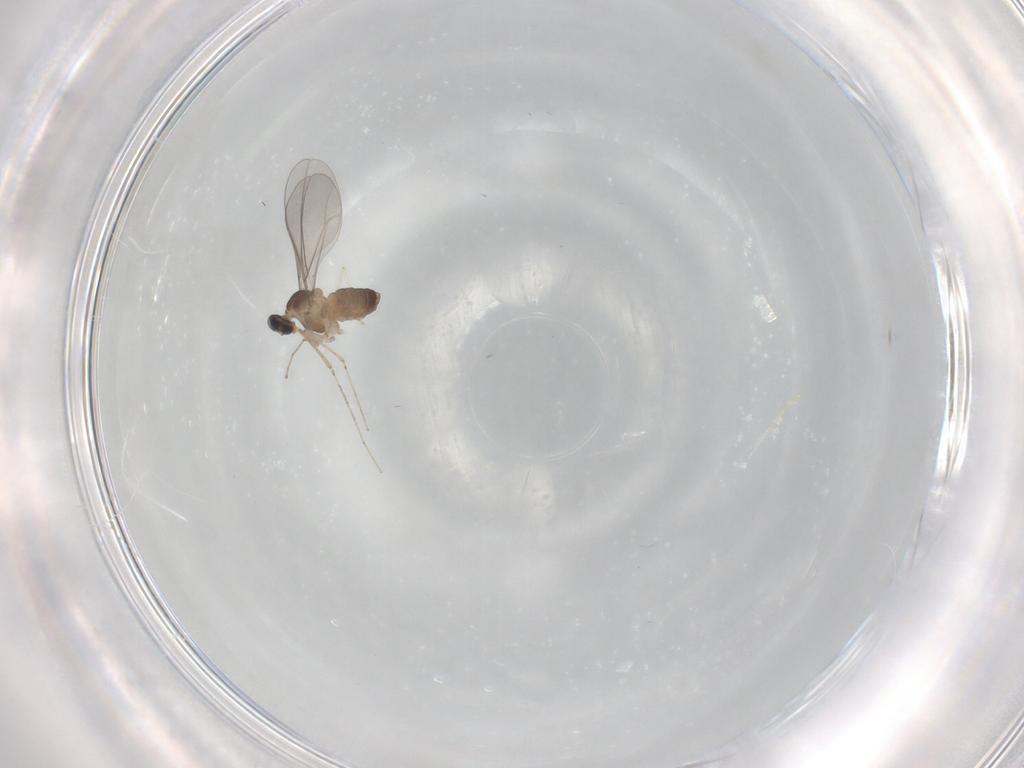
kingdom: Animalia
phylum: Arthropoda
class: Insecta
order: Diptera
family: Cecidomyiidae
